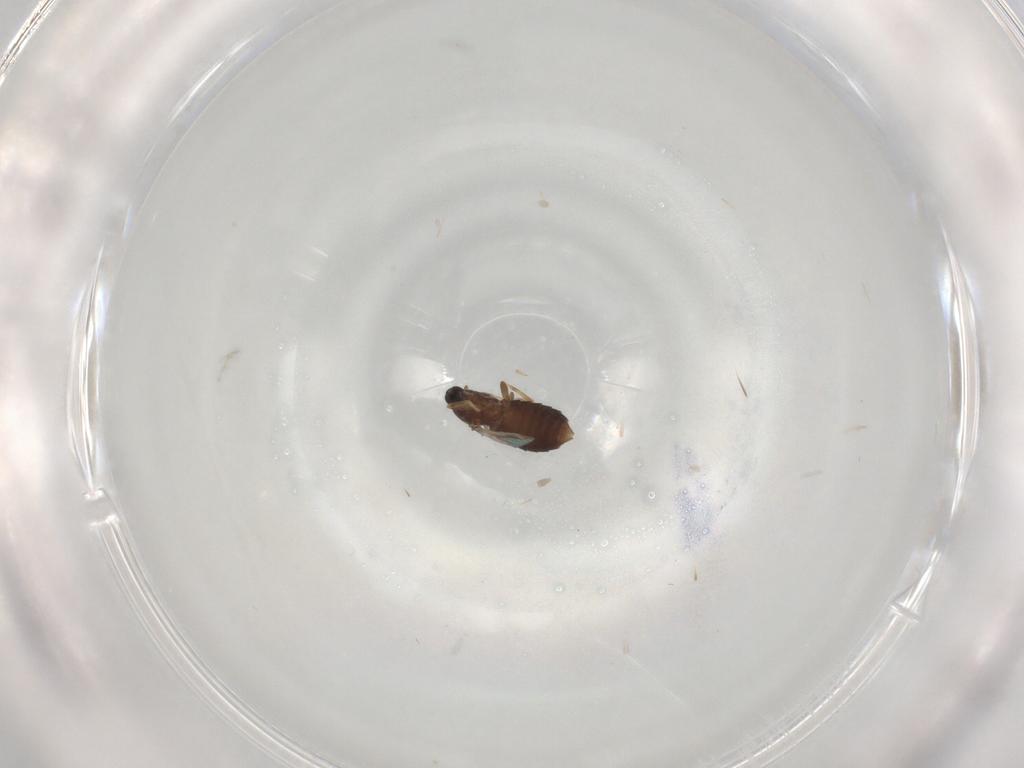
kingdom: Animalia
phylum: Arthropoda
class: Insecta
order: Diptera
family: Scatopsidae
